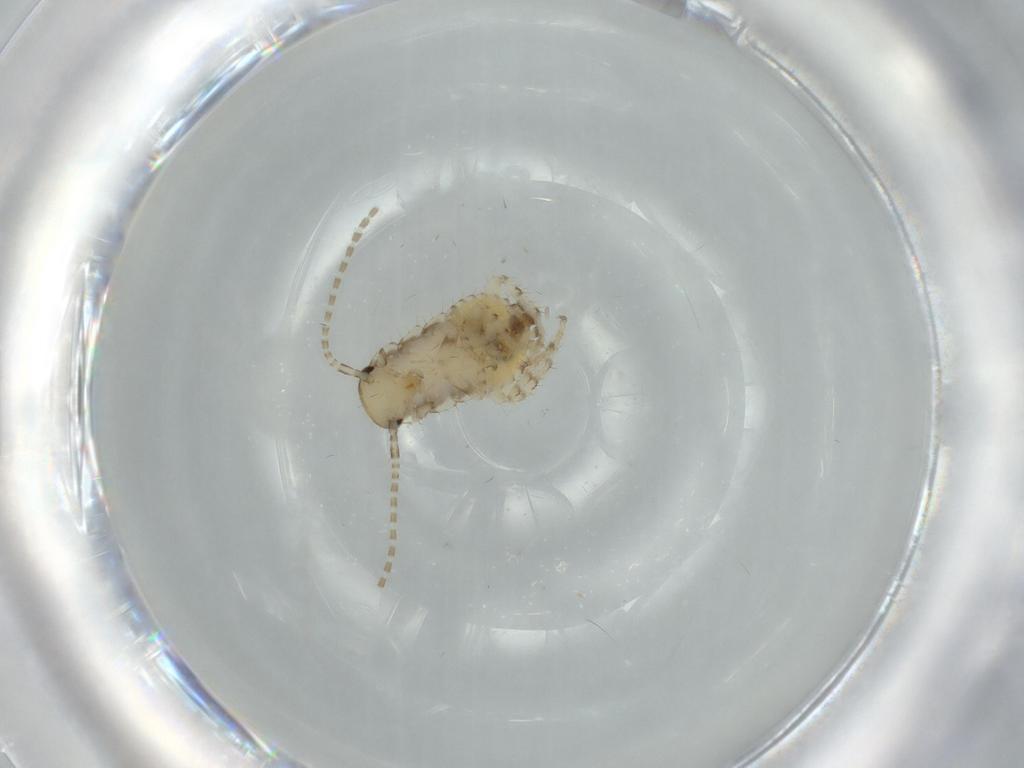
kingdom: Animalia
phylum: Arthropoda
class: Insecta
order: Blattodea
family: Ectobiidae
